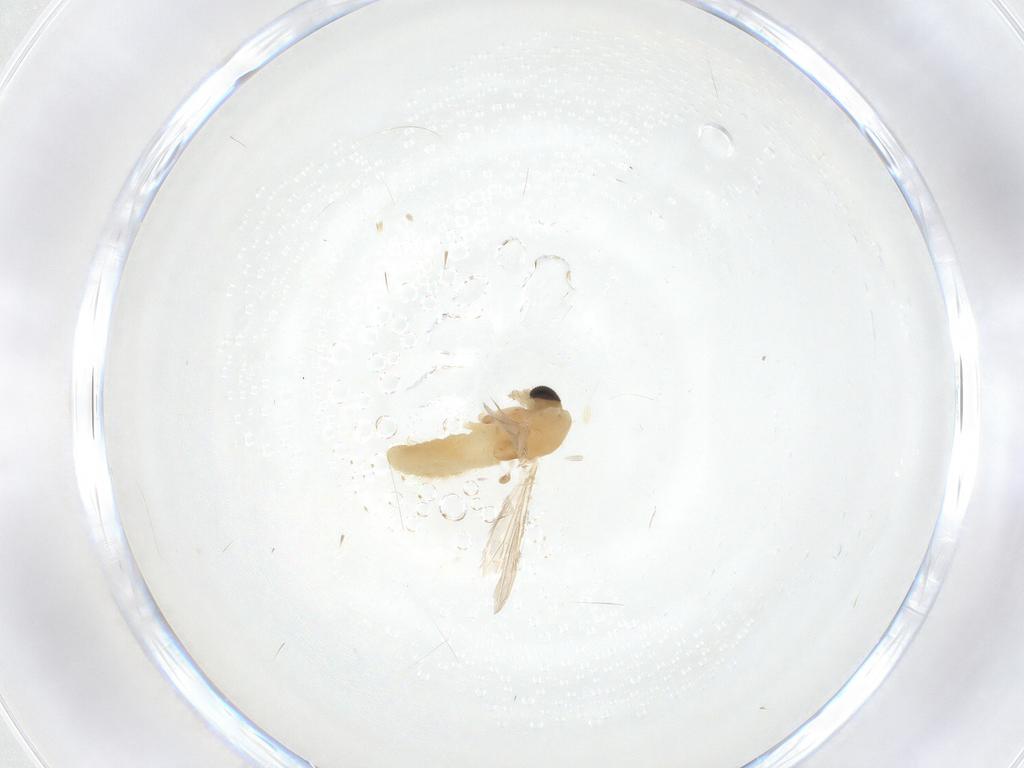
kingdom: Animalia
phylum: Arthropoda
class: Insecta
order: Diptera
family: Chironomidae
